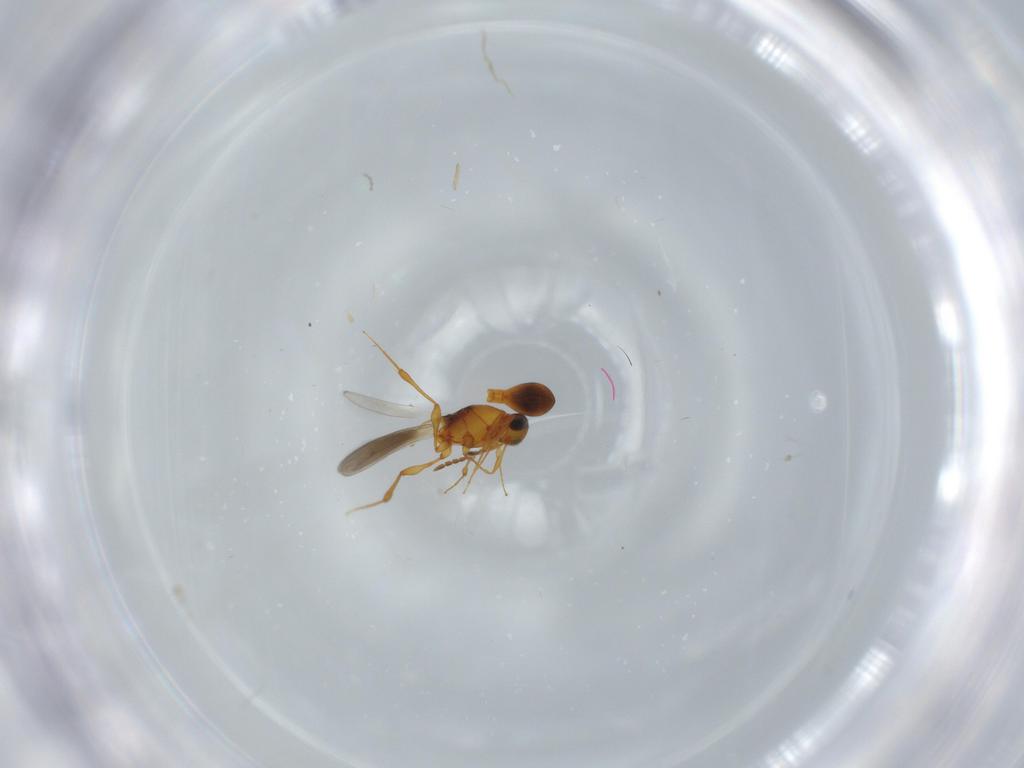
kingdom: Animalia
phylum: Arthropoda
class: Insecta
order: Hymenoptera
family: Platygastridae
